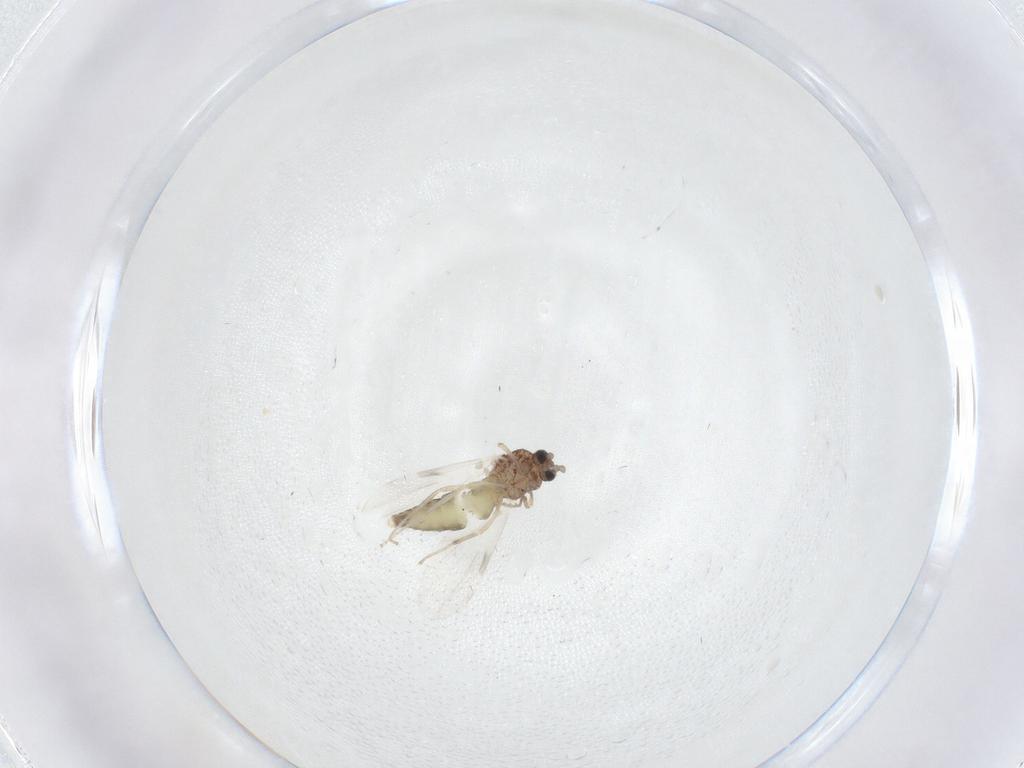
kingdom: Animalia
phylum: Arthropoda
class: Insecta
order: Diptera
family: Ceratopogonidae
